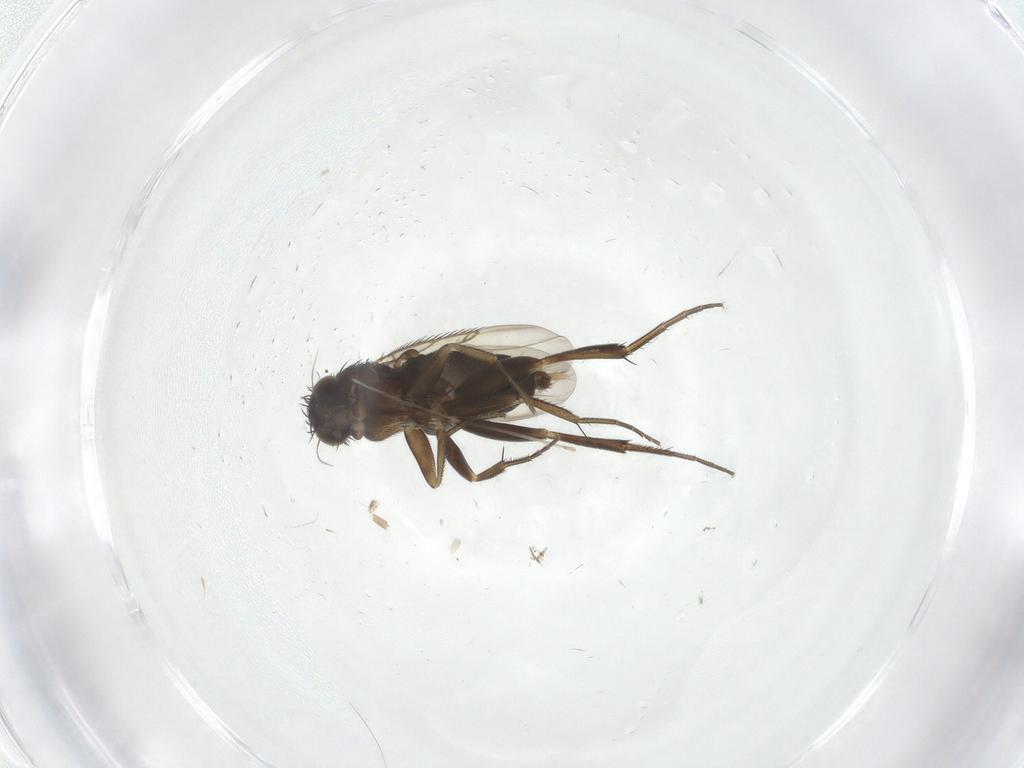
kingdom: Animalia
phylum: Arthropoda
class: Insecta
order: Diptera
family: Phoridae
